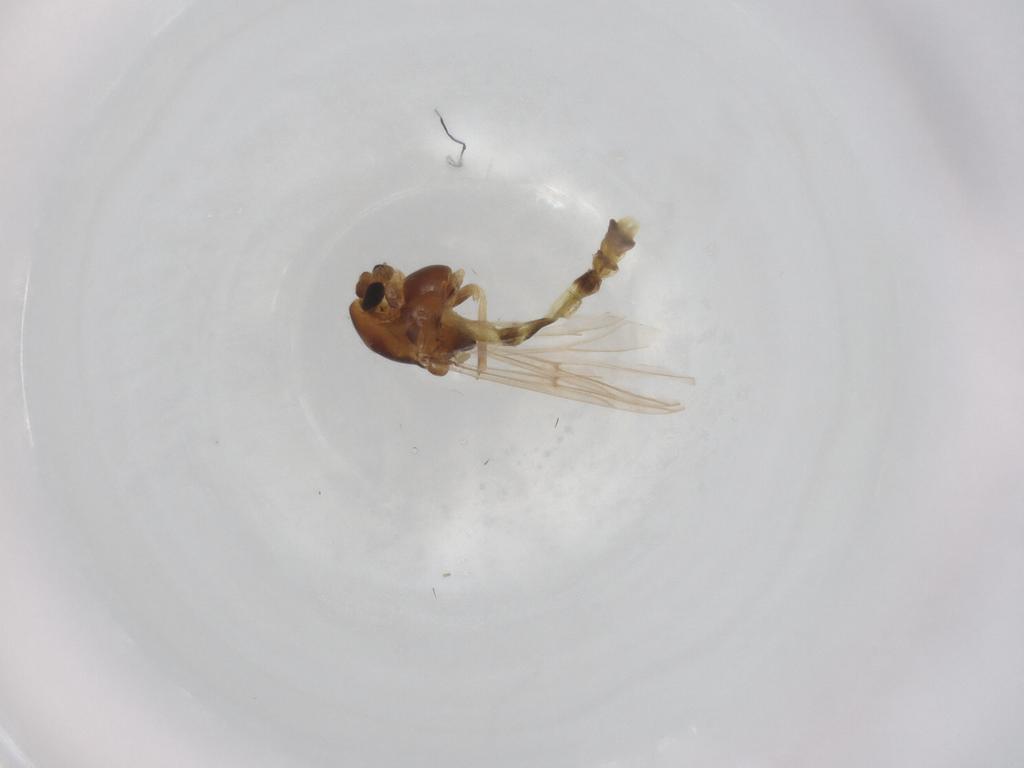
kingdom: Animalia
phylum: Arthropoda
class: Insecta
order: Diptera
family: Chironomidae
